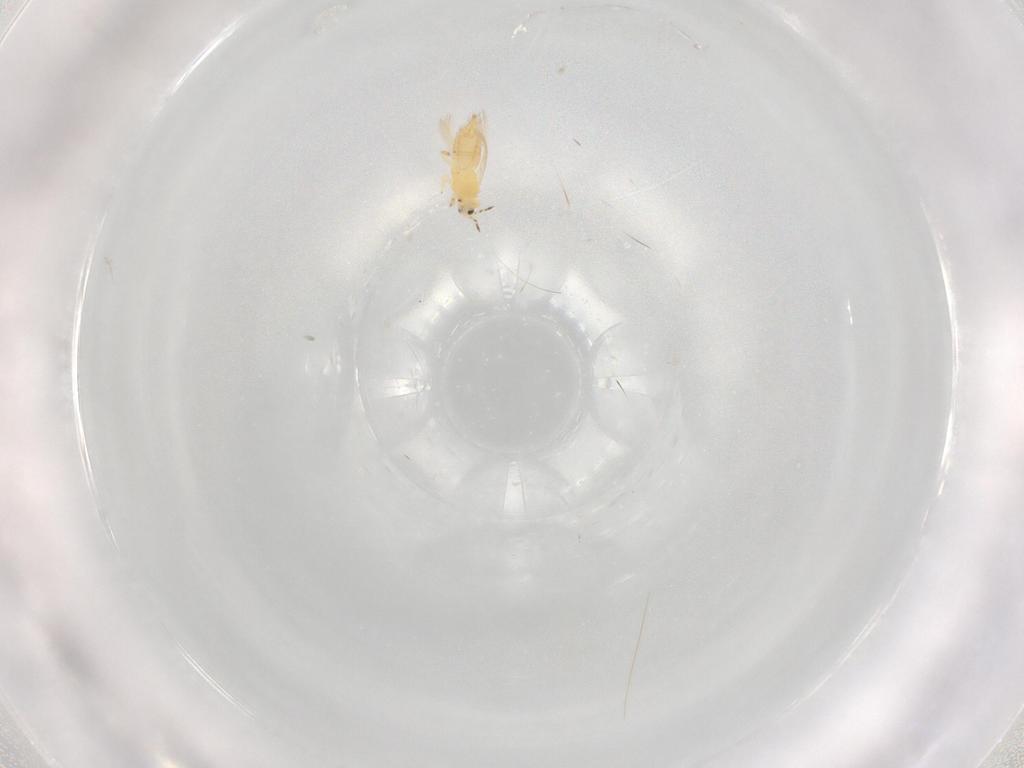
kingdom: Animalia
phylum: Arthropoda
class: Insecta
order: Thysanoptera
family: Thripidae
